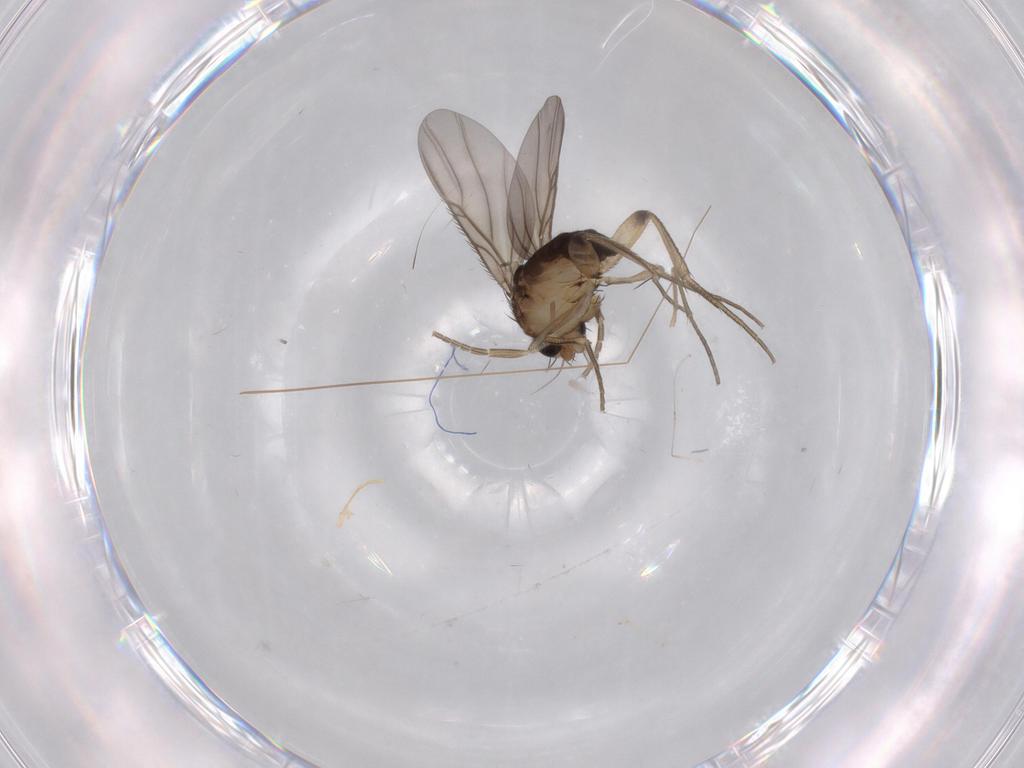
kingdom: Animalia
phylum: Arthropoda
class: Insecta
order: Diptera
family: Phoridae
